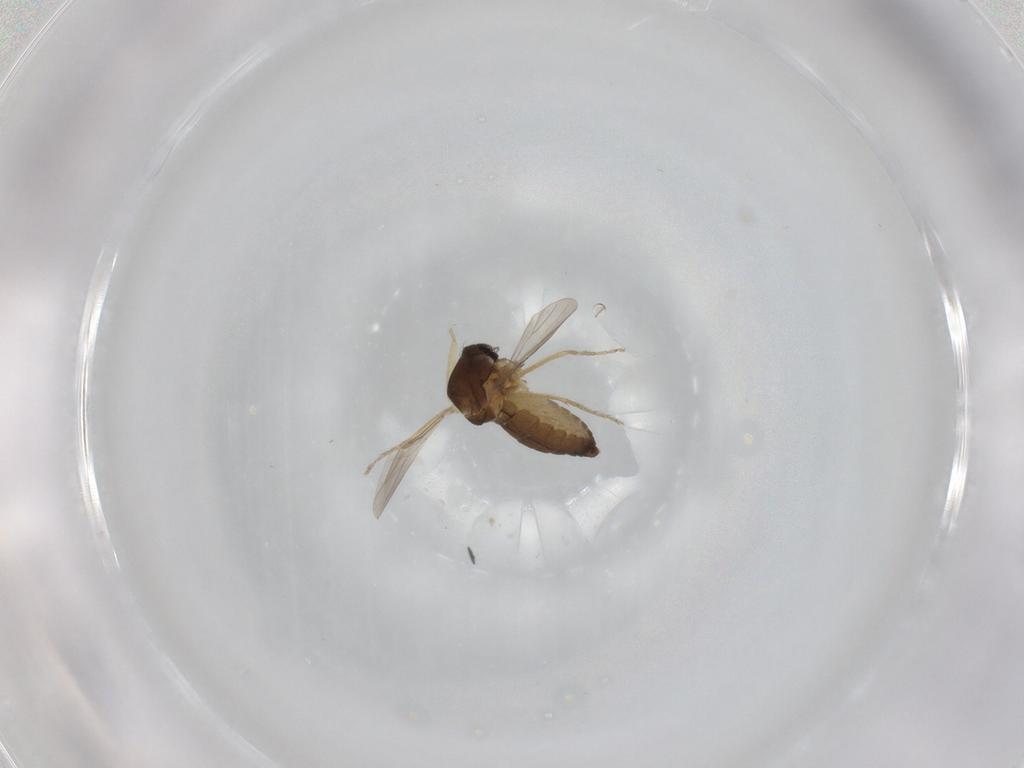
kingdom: Animalia
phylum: Arthropoda
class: Insecta
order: Diptera
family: Ceratopogonidae
